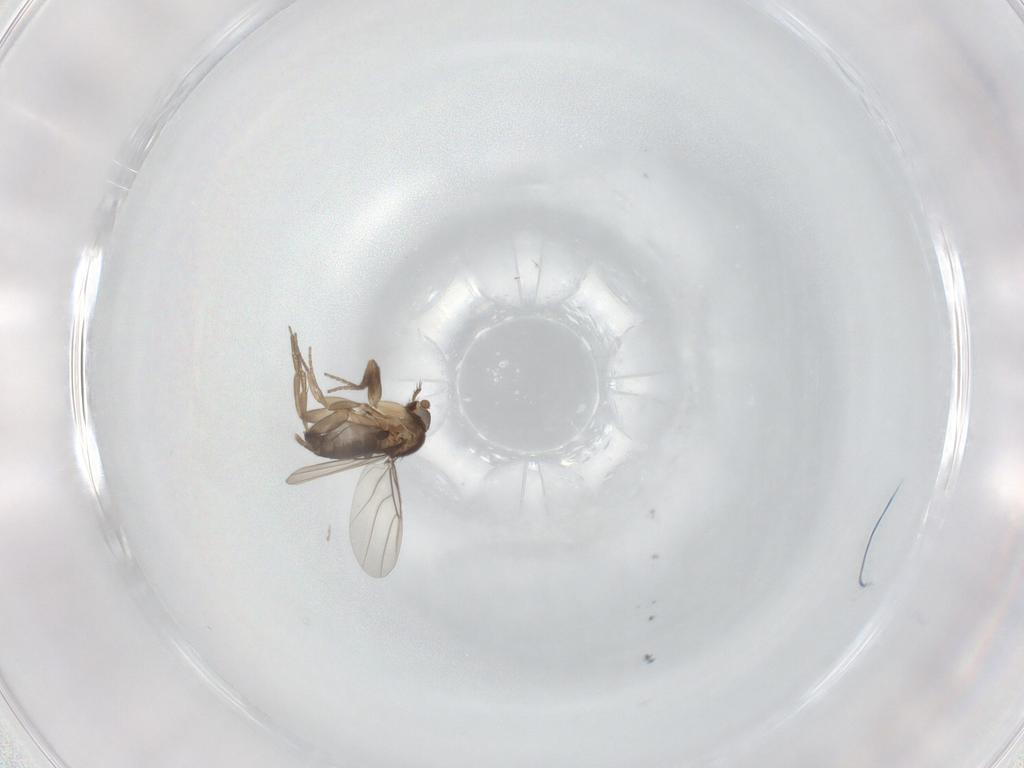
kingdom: Animalia
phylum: Arthropoda
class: Insecta
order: Diptera
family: Phoridae
